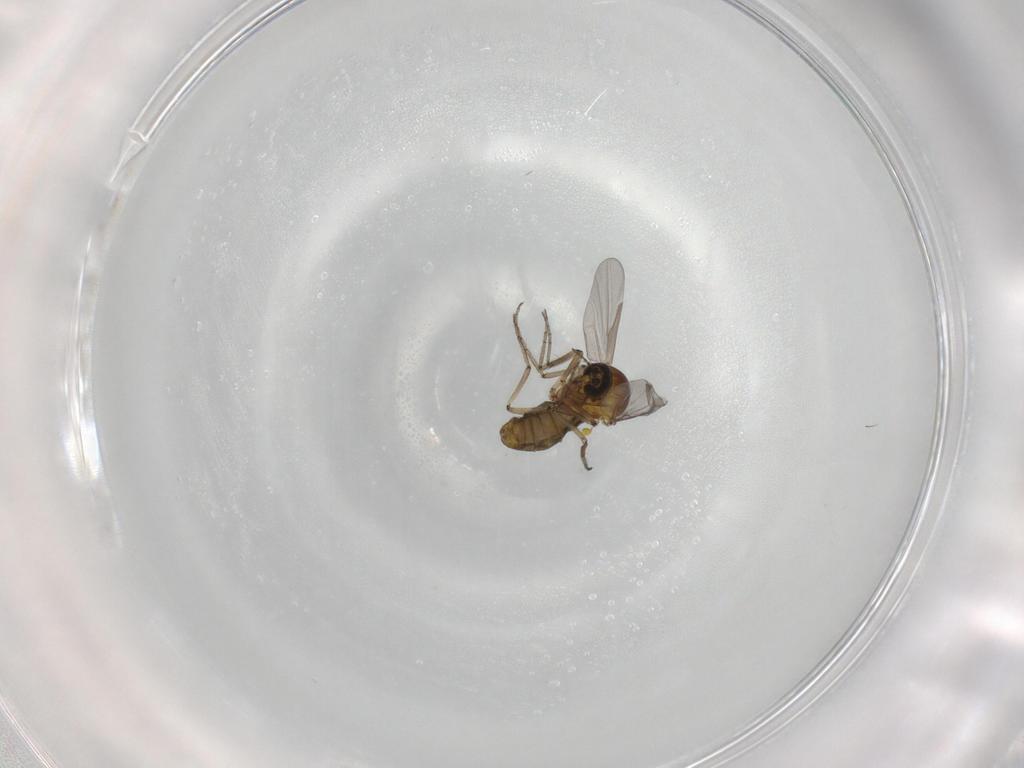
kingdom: Animalia
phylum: Arthropoda
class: Insecta
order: Diptera
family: Ceratopogonidae
